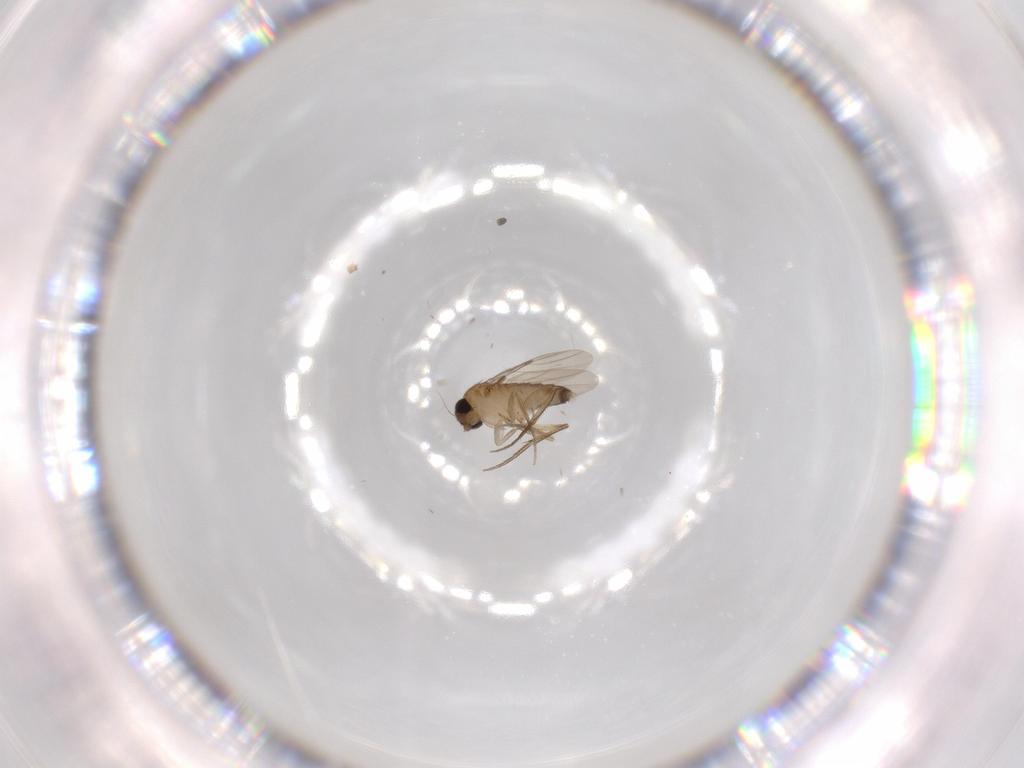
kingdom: Animalia
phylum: Arthropoda
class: Insecta
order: Diptera
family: Phoridae
